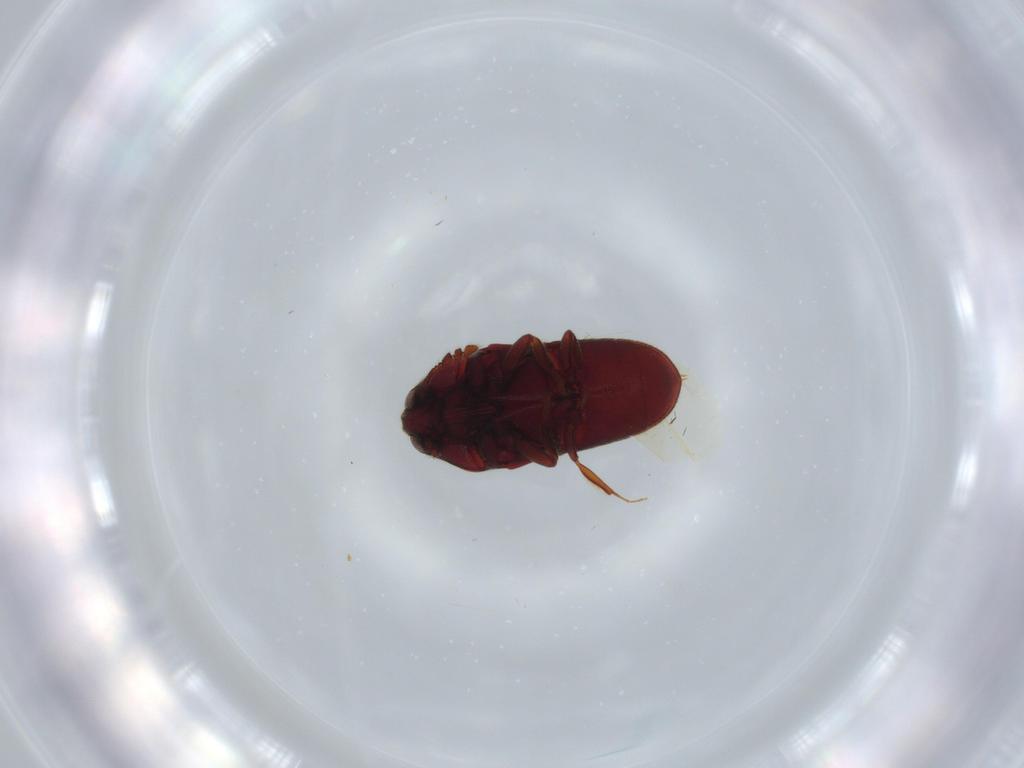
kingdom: Animalia
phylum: Arthropoda
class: Insecta
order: Coleoptera
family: Throscidae
